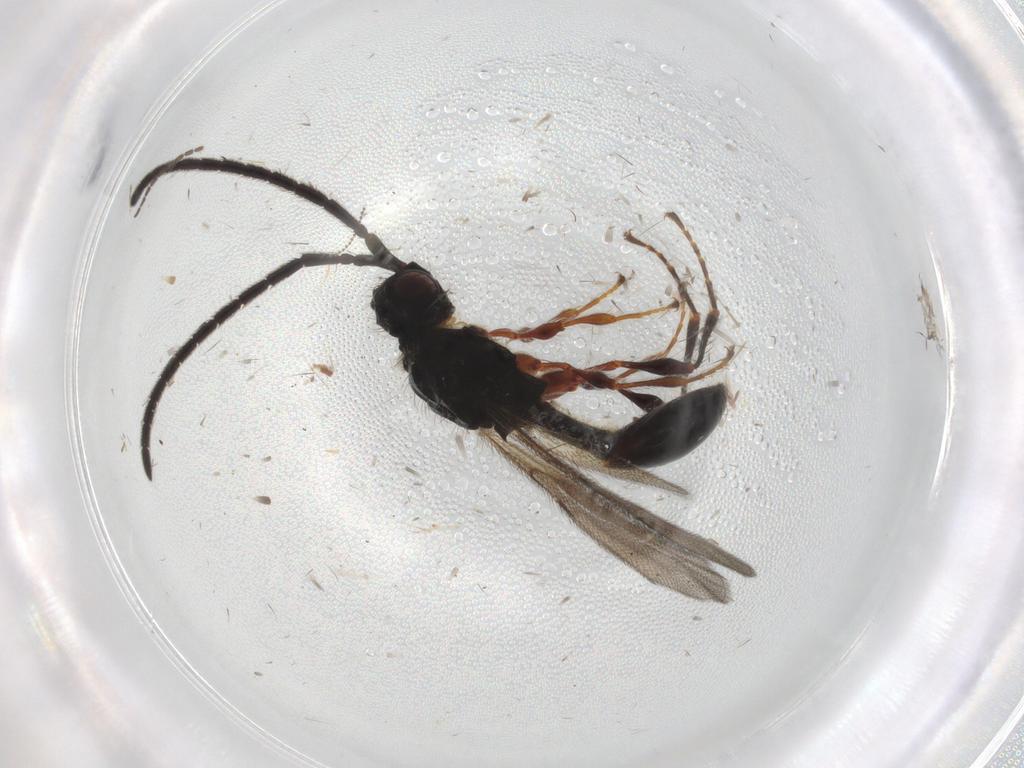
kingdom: Animalia
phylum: Arthropoda
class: Insecta
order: Hymenoptera
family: Diapriidae
